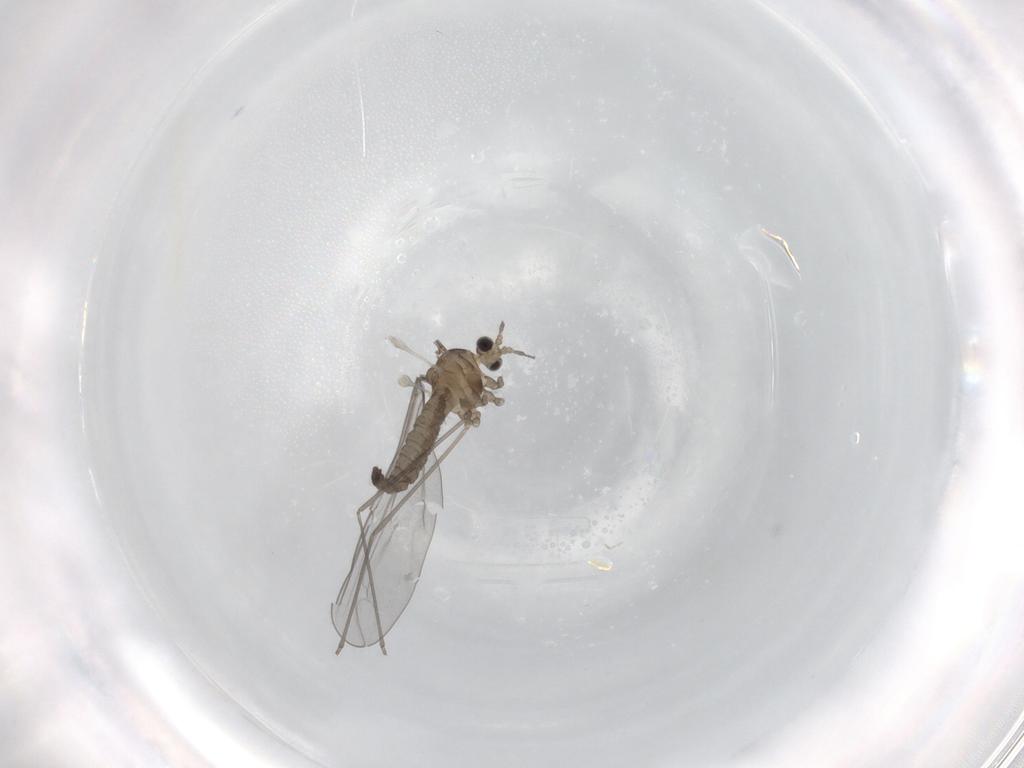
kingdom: Animalia
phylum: Arthropoda
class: Insecta
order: Diptera
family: Cecidomyiidae
